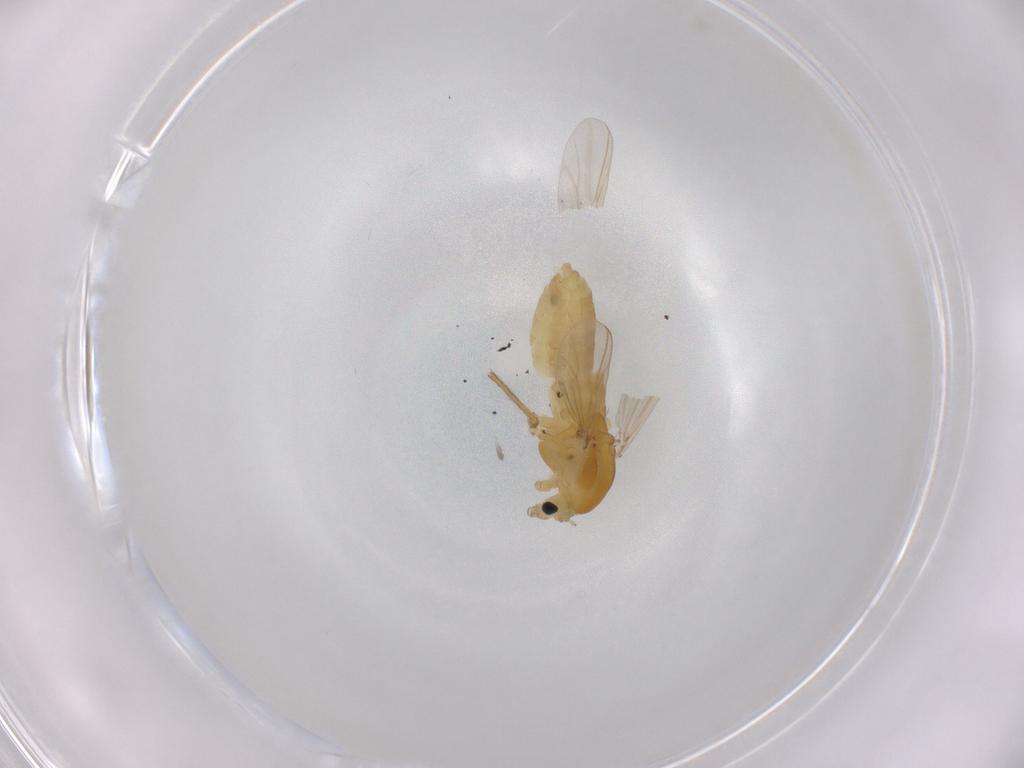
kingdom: Animalia
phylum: Arthropoda
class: Insecta
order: Diptera
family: Chironomidae
